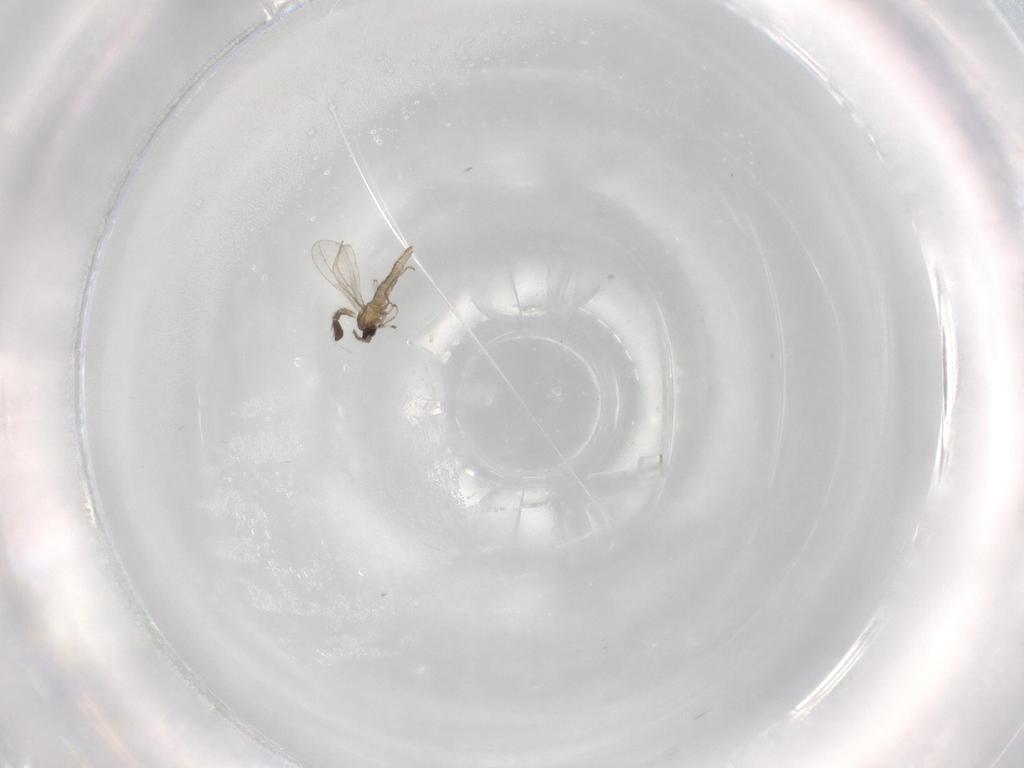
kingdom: Animalia
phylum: Arthropoda
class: Insecta
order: Diptera
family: Cecidomyiidae
